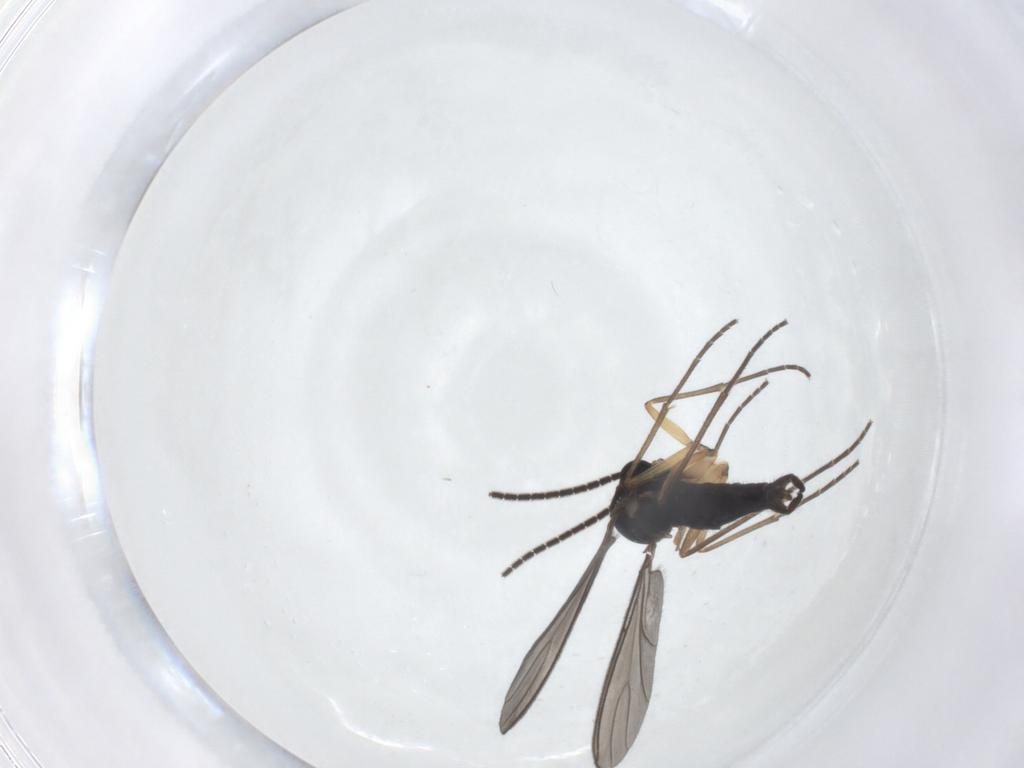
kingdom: Animalia
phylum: Arthropoda
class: Insecta
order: Diptera
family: Sciaridae
